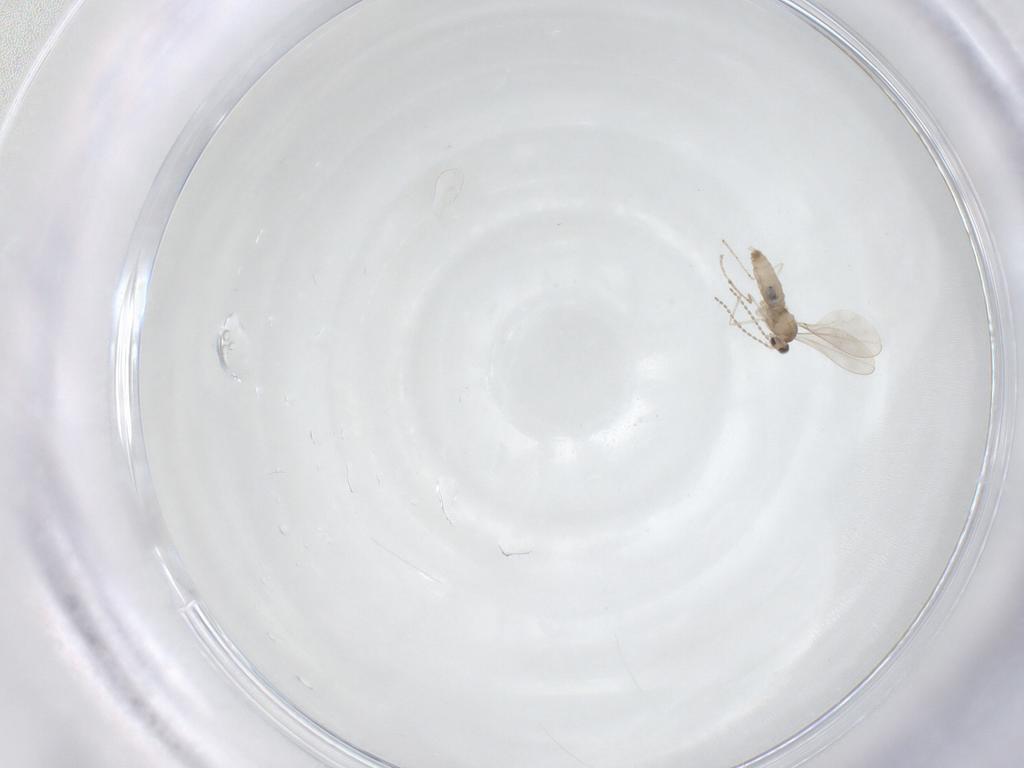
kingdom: Animalia
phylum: Arthropoda
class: Insecta
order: Diptera
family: Cecidomyiidae
